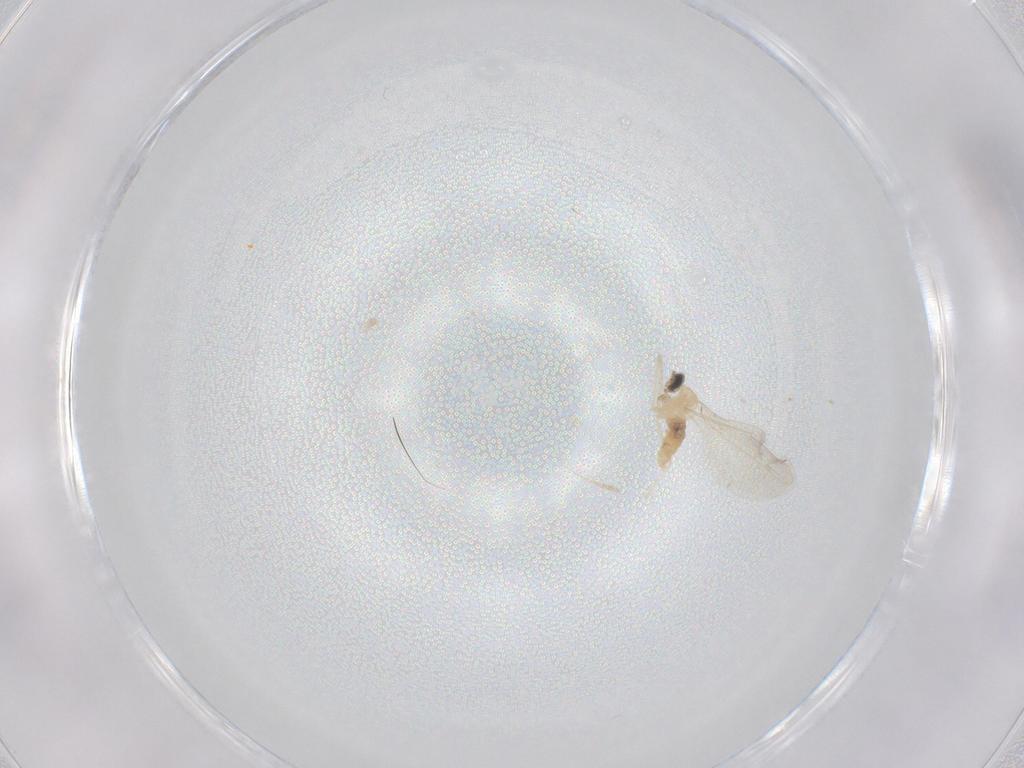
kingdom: Animalia
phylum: Arthropoda
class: Insecta
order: Diptera
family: Cecidomyiidae
